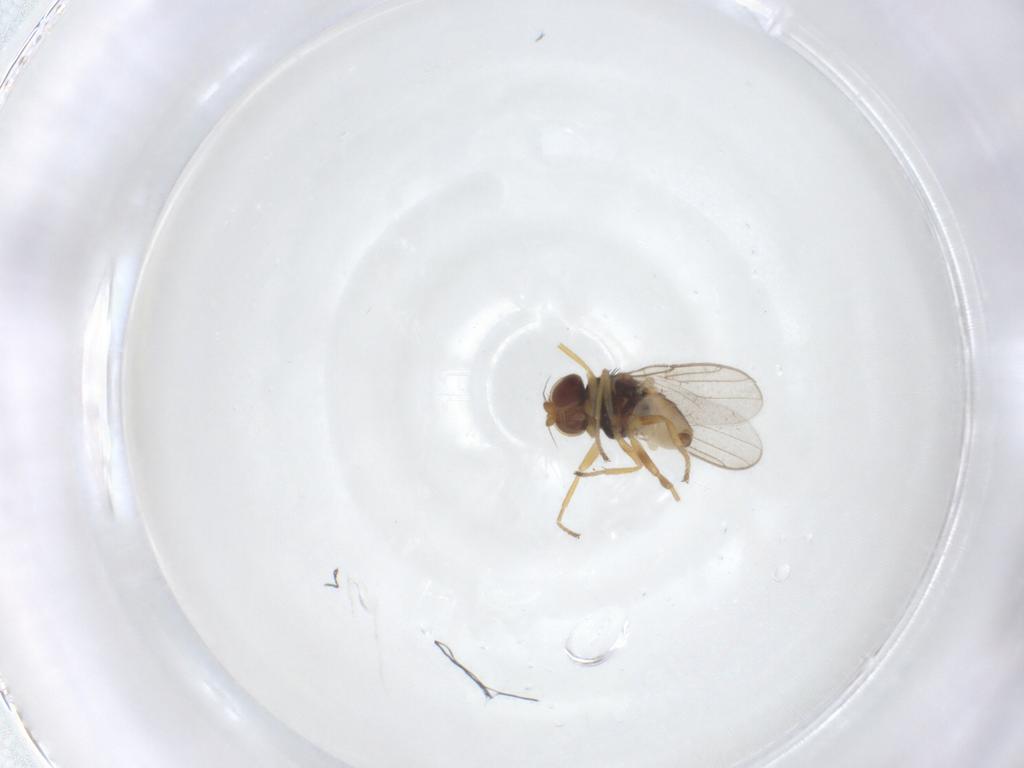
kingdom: Animalia
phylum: Arthropoda
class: Insecta
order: Diptera
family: Chloropidae
